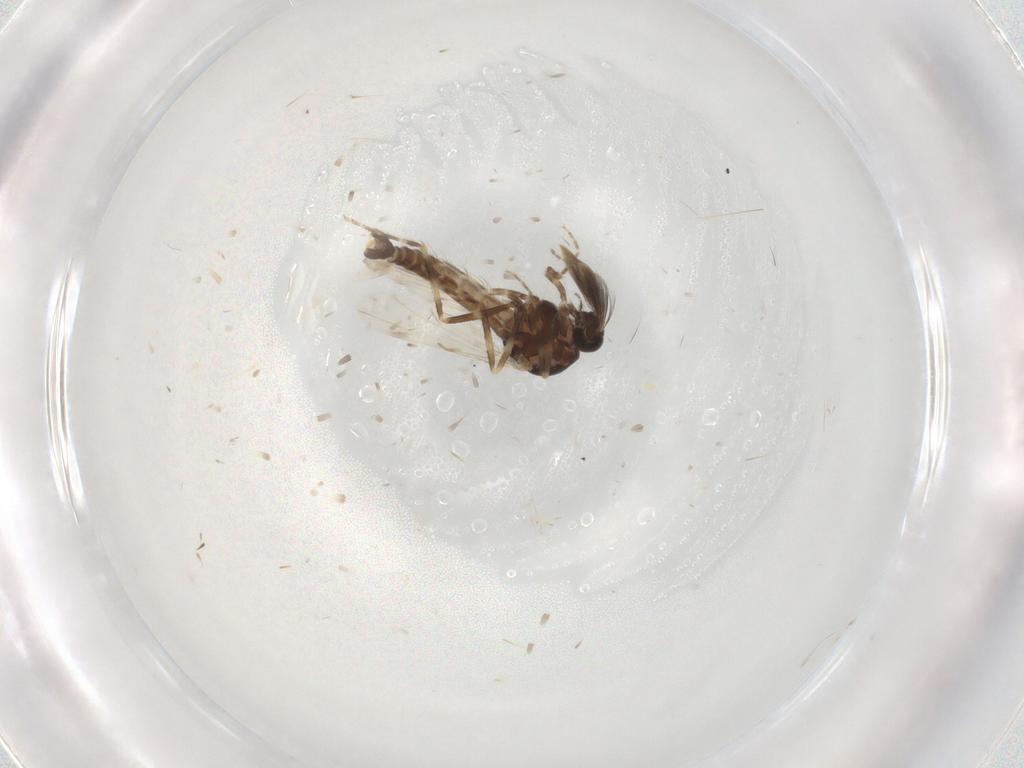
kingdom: Animalia
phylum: Arthropoda
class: Insecta
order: Diptera
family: Ceratopogonidae
